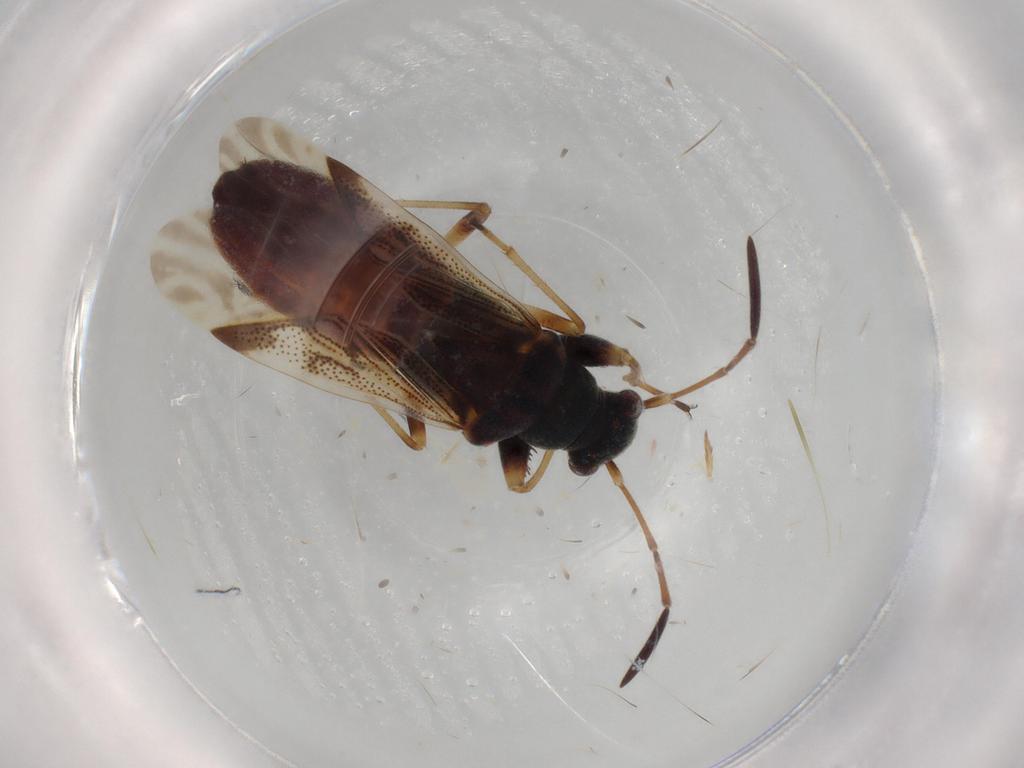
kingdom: Animalia
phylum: Arthropoda
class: Insecta
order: Hemiptera
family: Rhyparochromidae
